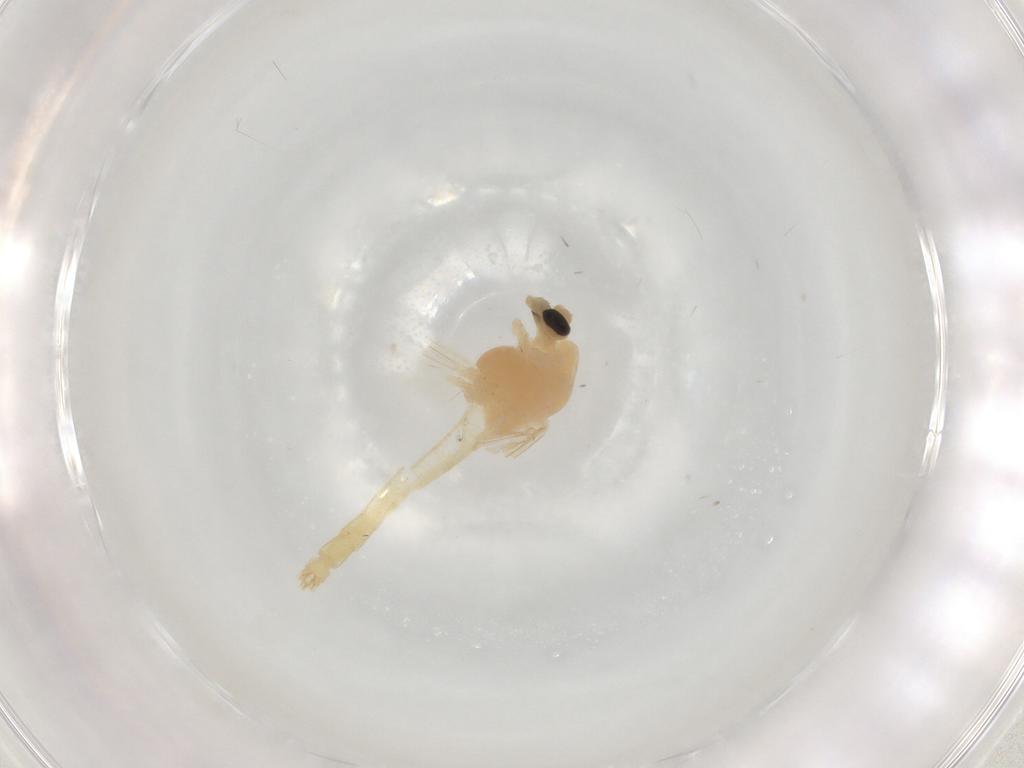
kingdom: Animalia
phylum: Arthropoda
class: Insecta
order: Diptera
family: Chironomidae
